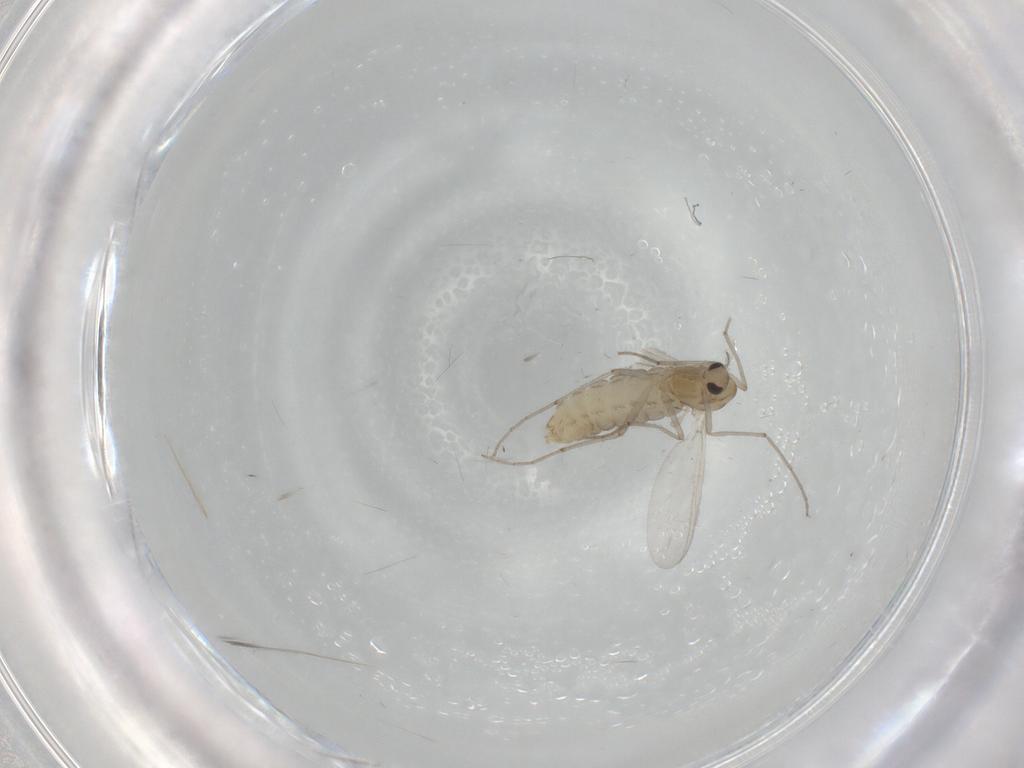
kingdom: Animalia
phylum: Arthropoda
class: Insecta
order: Diptera
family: Chironomidae
